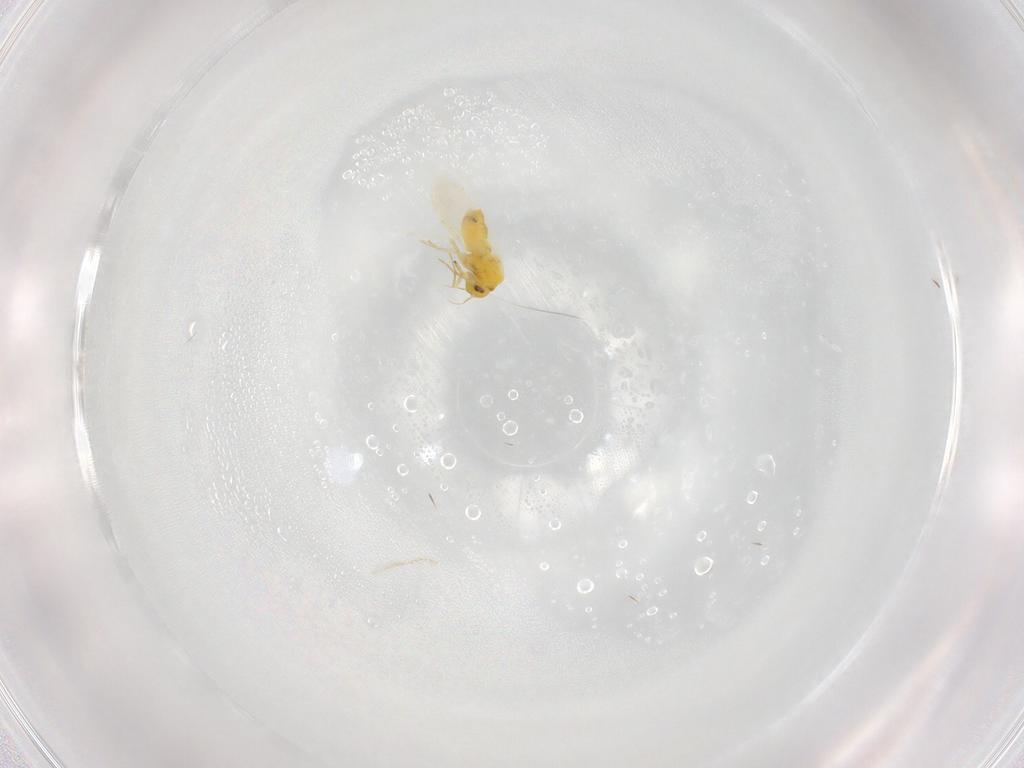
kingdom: Animalia
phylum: Arthropoda
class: Insecta
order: Hemiptera
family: Aleyrodidae
